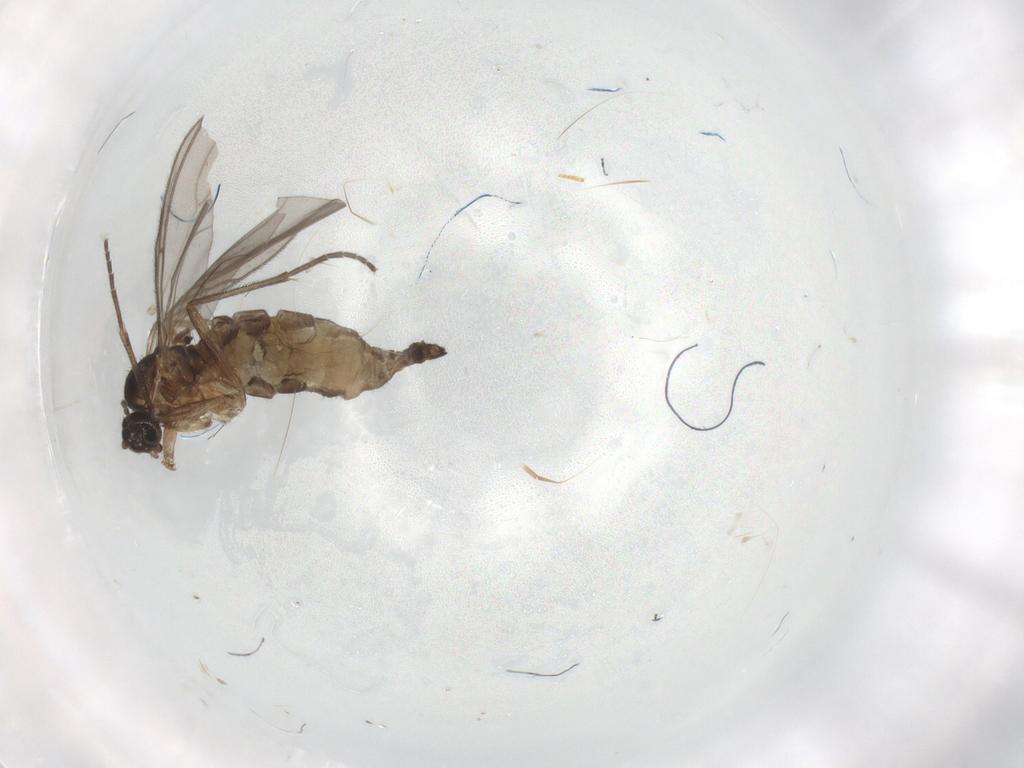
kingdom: Animalia
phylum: Arthropoda
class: Insecta
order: Diptera
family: Sciaridae
